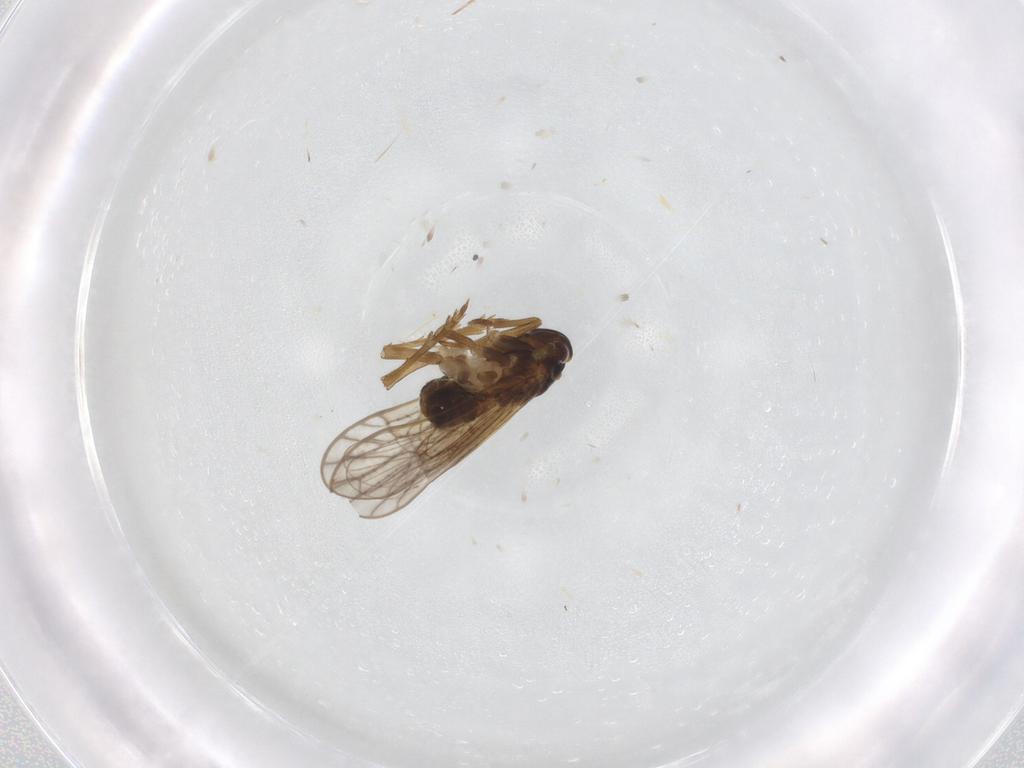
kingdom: Animalia
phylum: Arthropoda
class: Insecta
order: Hemiptera
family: Delphacidae
